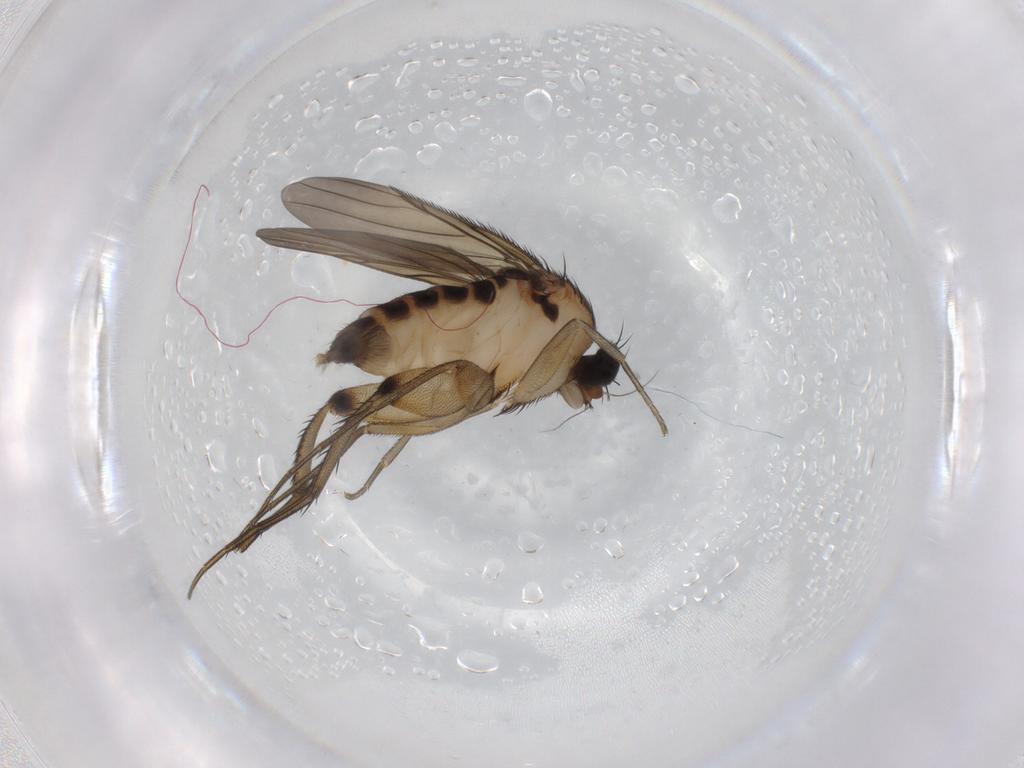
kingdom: Animalia
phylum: Arthropoda
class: Insecta
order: Diptera
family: Phoridae
